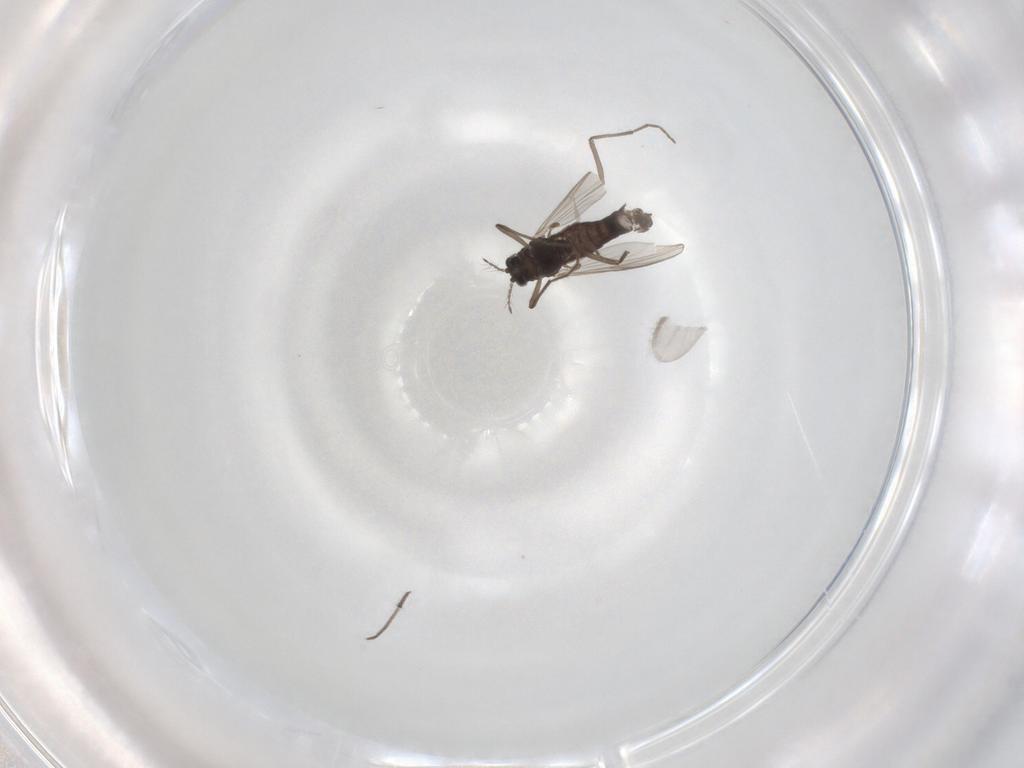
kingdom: Animalia
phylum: Arthropoda
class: Insecta
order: Diptera
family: Chironomidae
